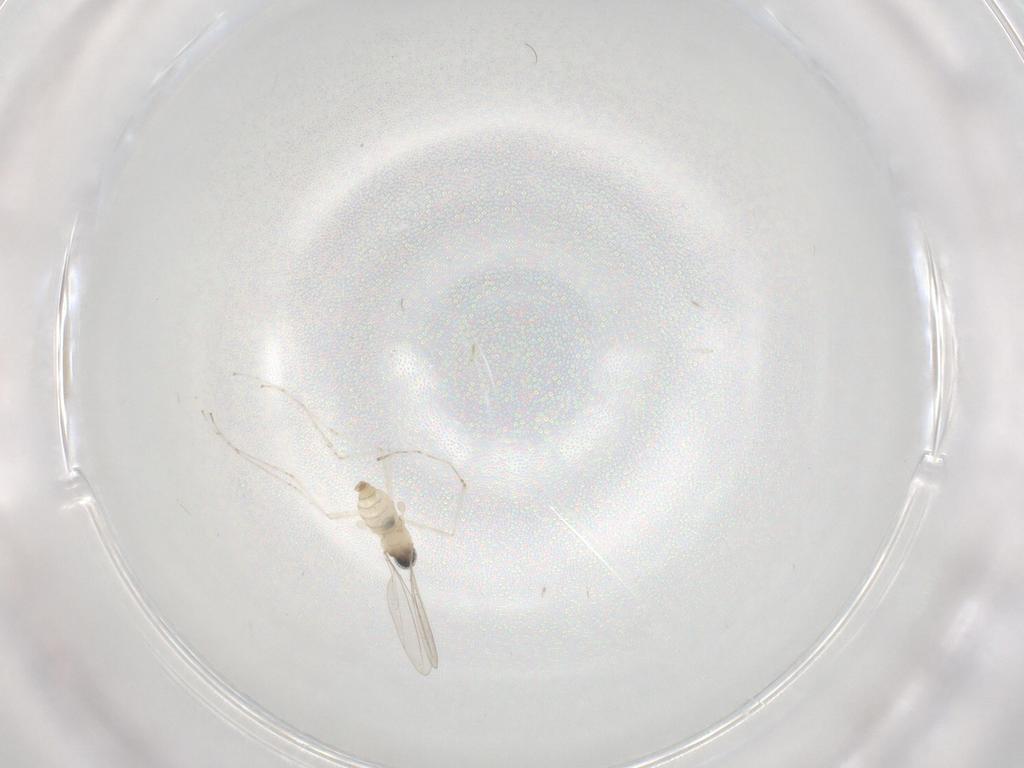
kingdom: Animalia
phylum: Arthropoda
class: Insecta
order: Diptera
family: Cecidomyiidae
